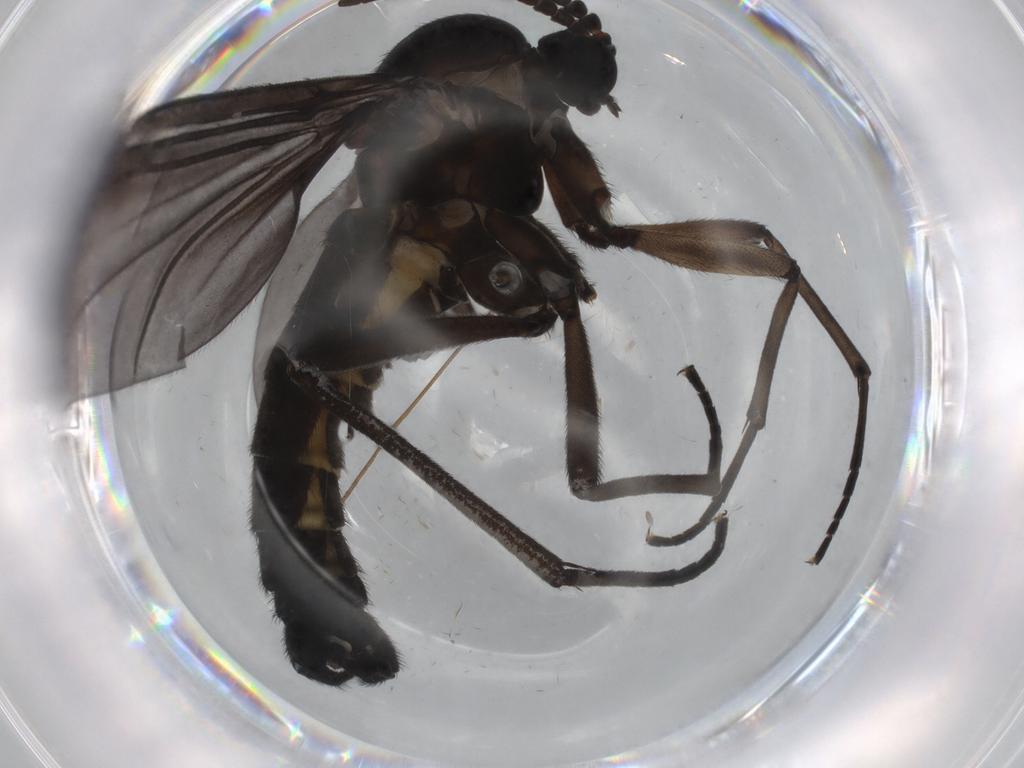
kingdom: Animalia
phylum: Arthropoda
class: Insecta
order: Diptera
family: Sciaridae
